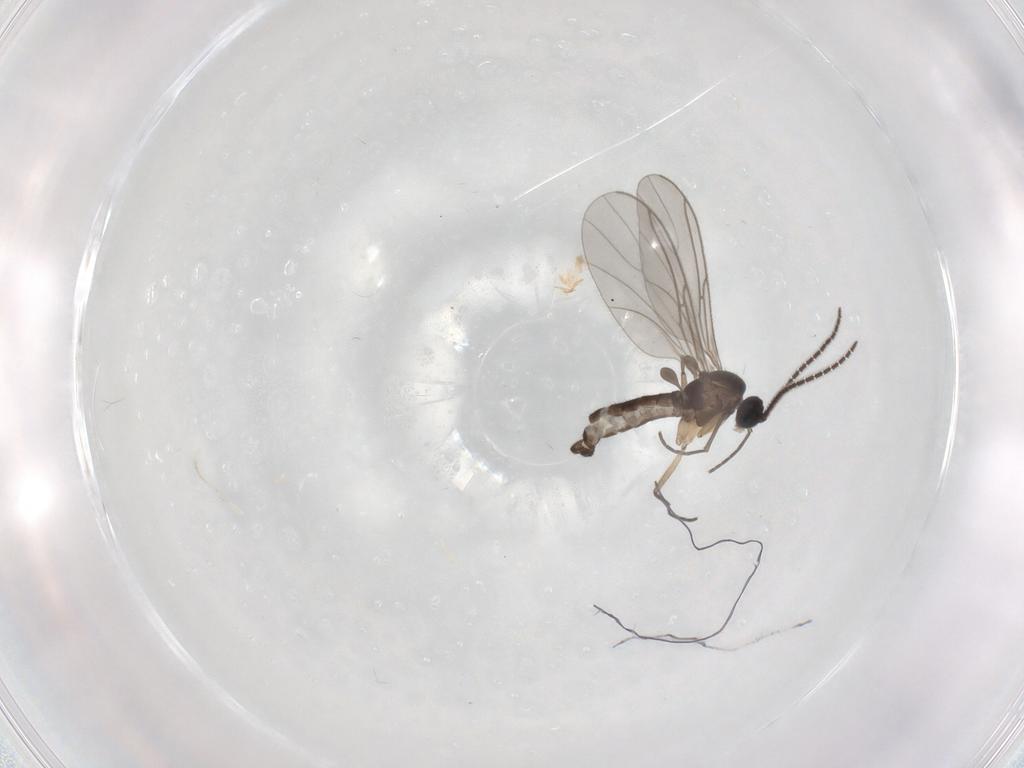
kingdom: Animalia
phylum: Arthropoda
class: Insecta
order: Diptera
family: Sciaridae
